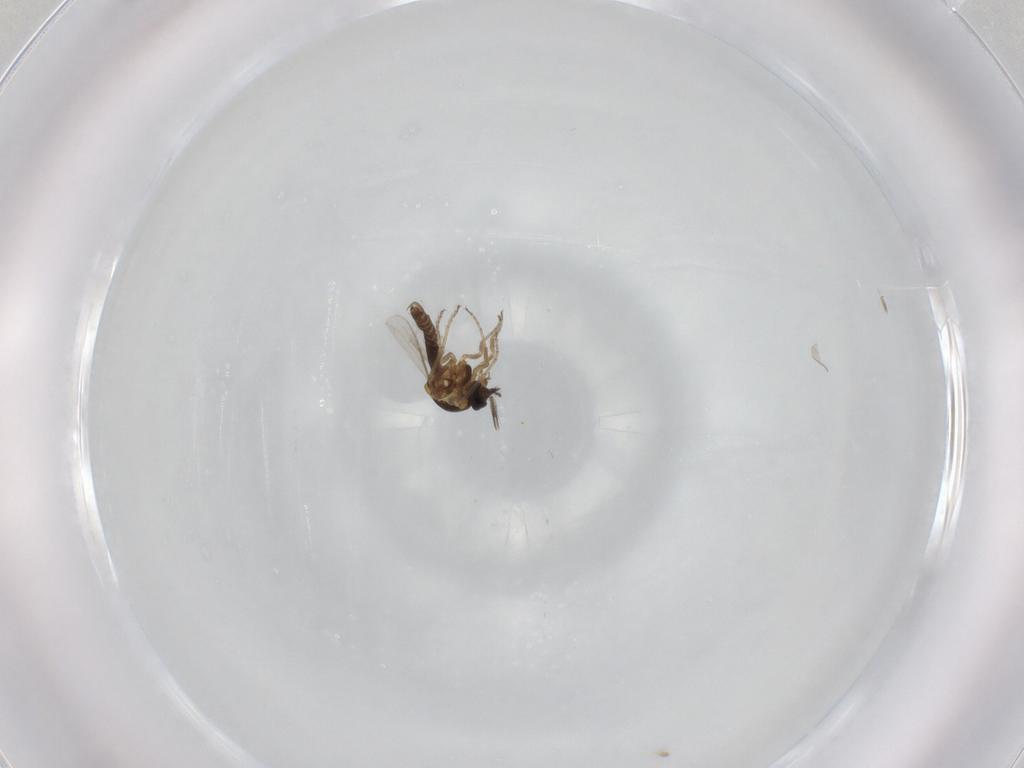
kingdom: Animalia
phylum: Arthropoda
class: Insecta
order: Diptera
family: Ceratopogonidae
